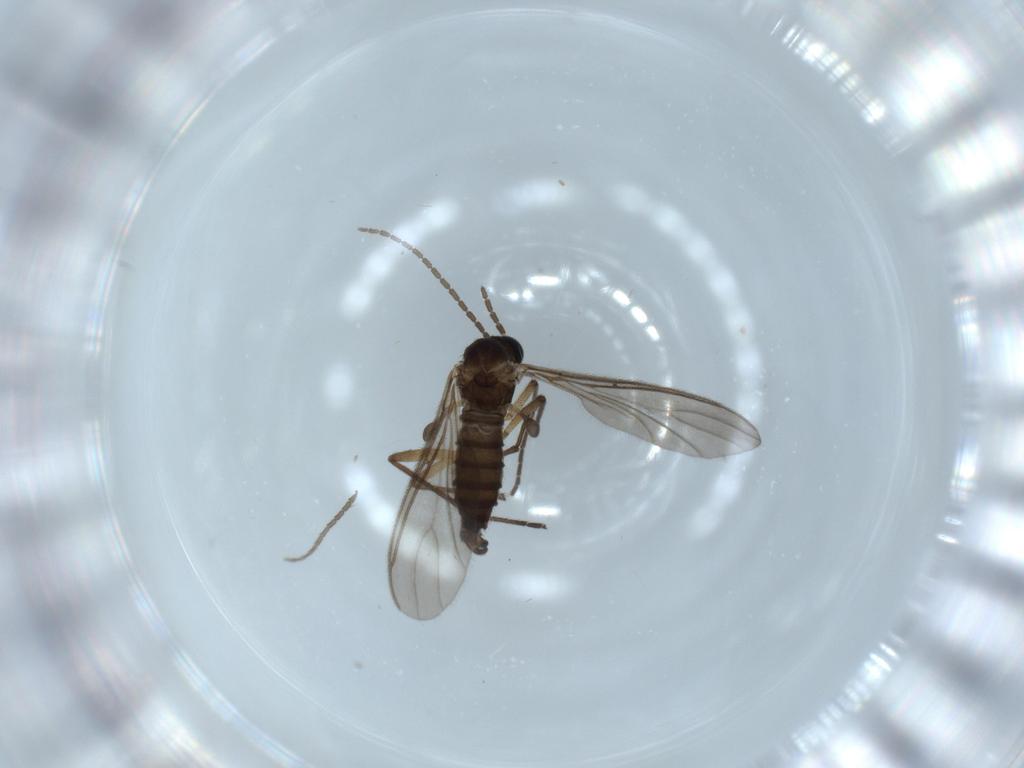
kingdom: Animalia
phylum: Arthropoda
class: Insecta
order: Diptera
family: Sciaridae
